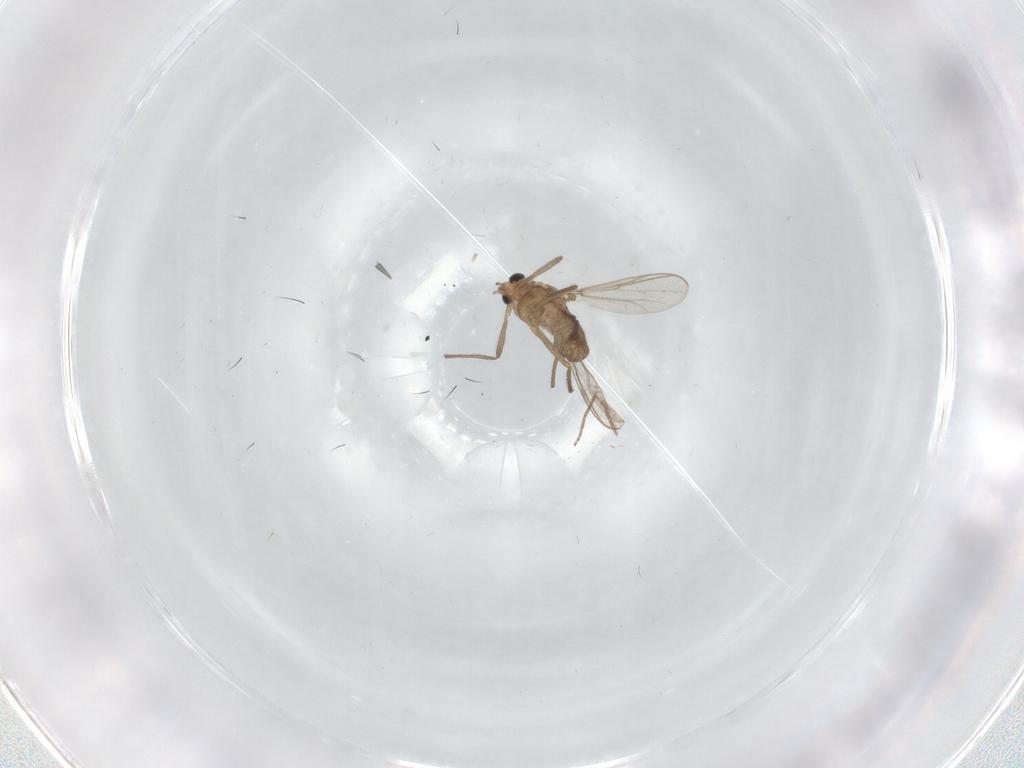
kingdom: Animalia
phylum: Arthropoda
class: Insecta
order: Diptera
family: Chironomidae
